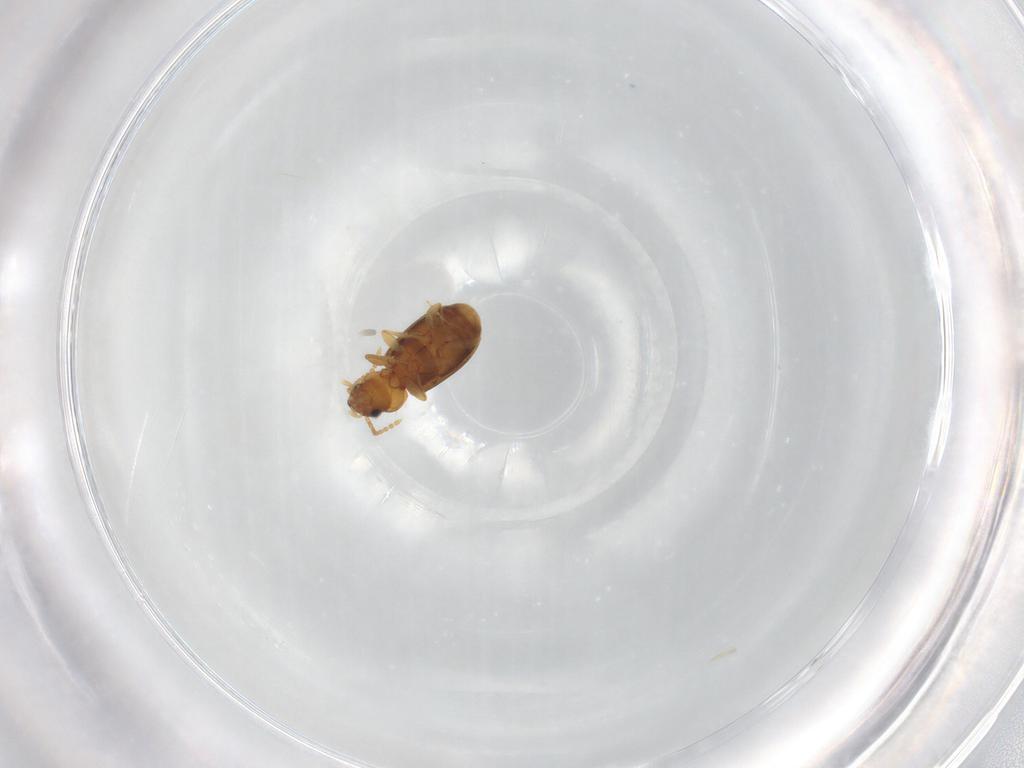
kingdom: Animalia
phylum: Arthropoda
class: Insecta
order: Coleoptera
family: Carabidae
